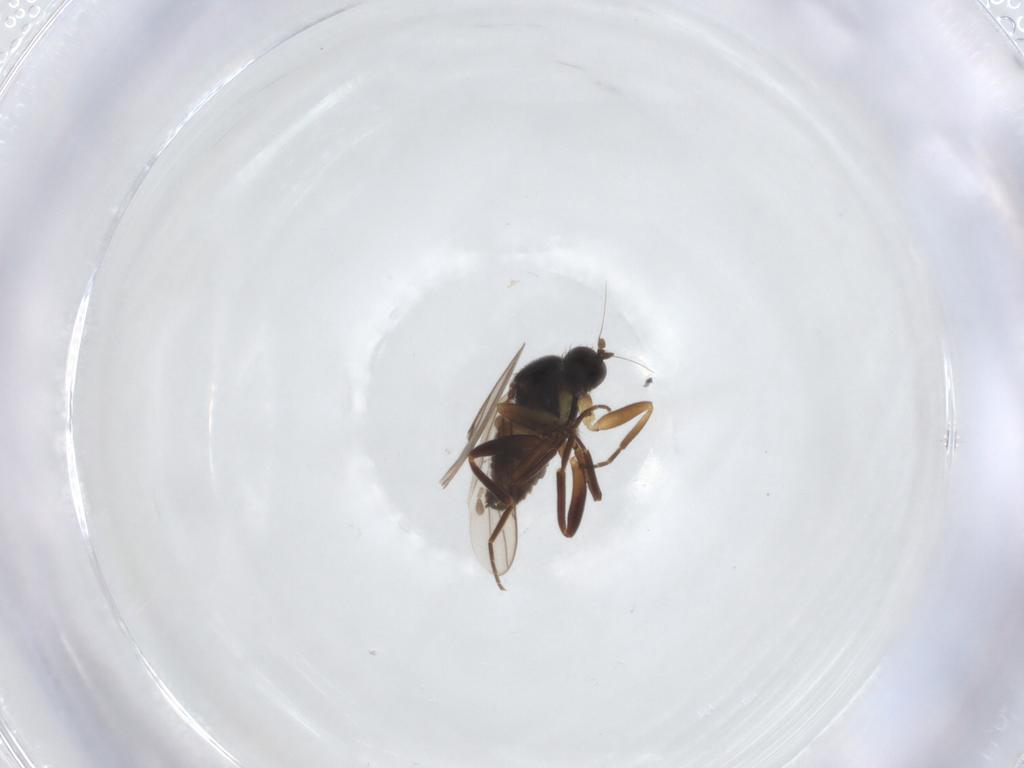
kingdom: Animalia
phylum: Arthropoda
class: Insecta
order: Diptera
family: Hybotidae
